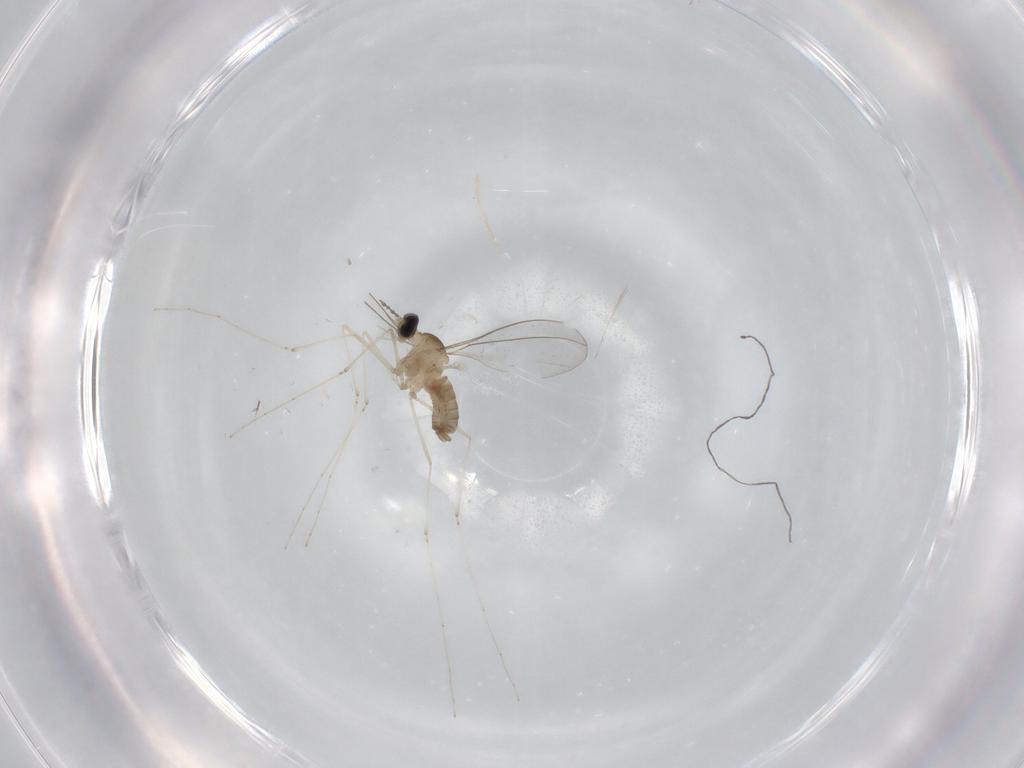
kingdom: Animalia
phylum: Arthropoda
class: Insecta
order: Diptera
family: Cecidomyiidae
